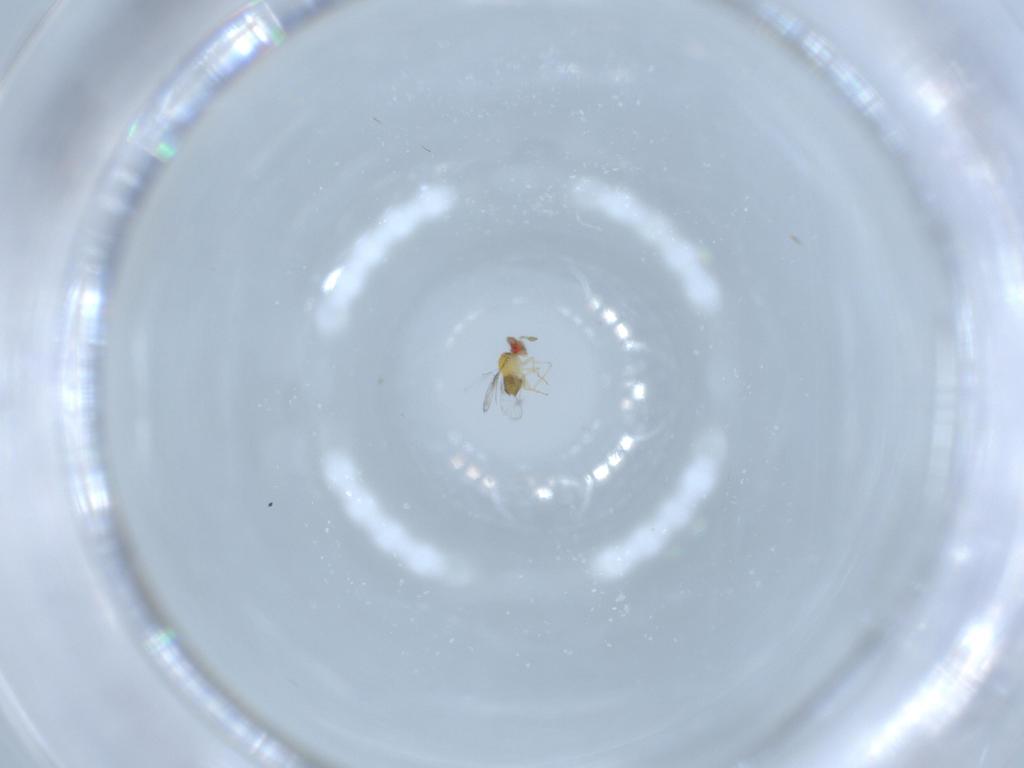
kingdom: Animalia
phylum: Arthropoda
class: Insecta
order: Hymenoptera
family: Trichogrammatidae
